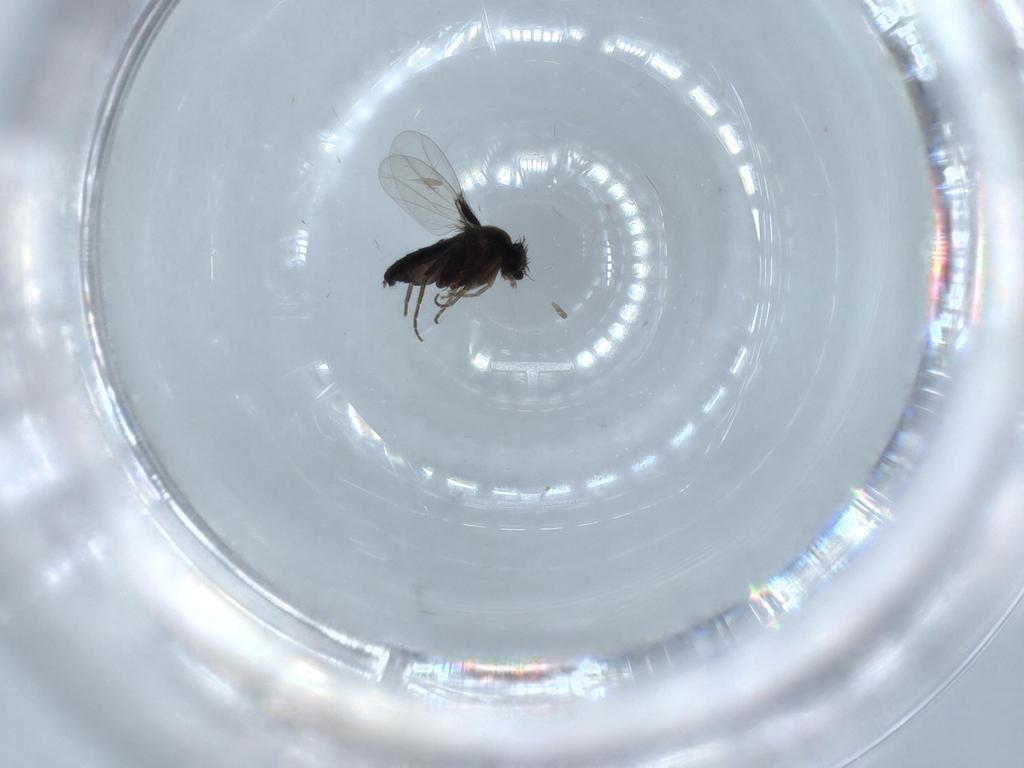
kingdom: Animalia
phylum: Arthropoda
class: Insecta
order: Diptera
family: Phoridae
